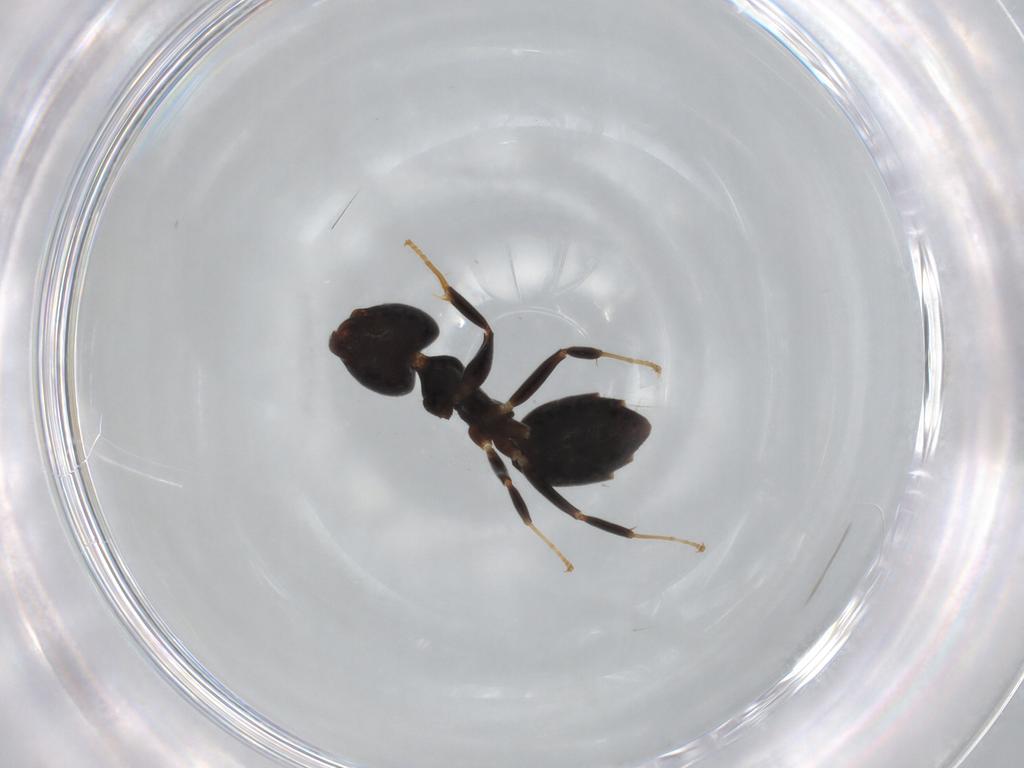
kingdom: Animalia
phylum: Arthropoda
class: Insecta
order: Hymenoptera
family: Formicidae
